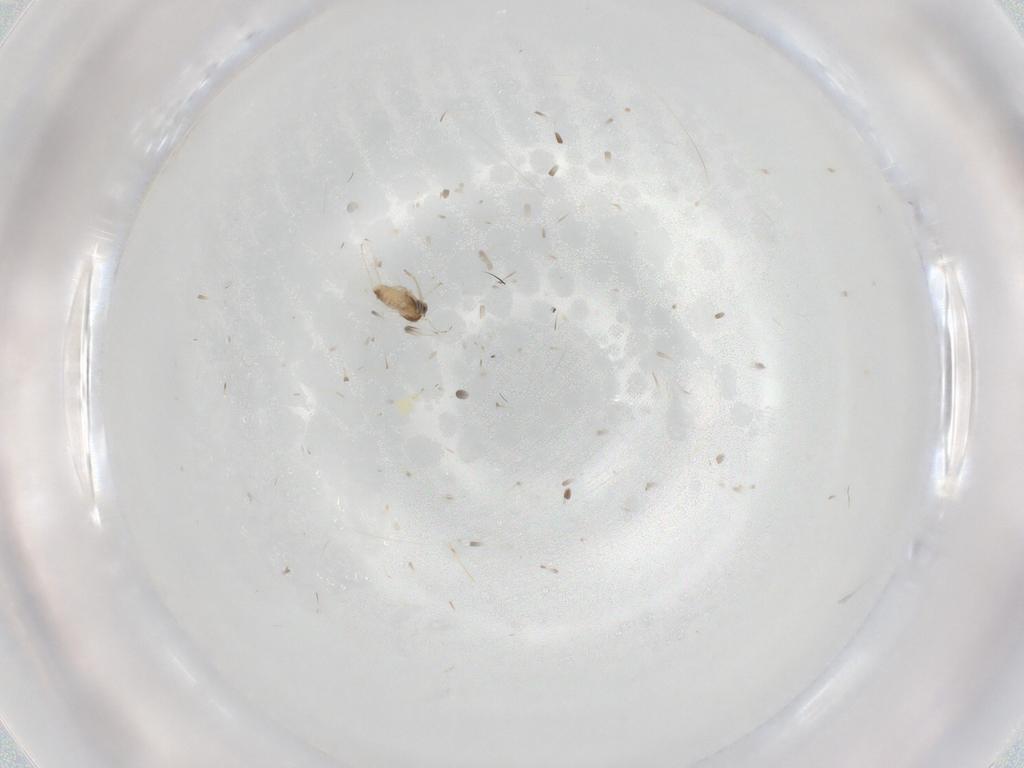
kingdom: Animalia
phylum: Arthropoda
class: Insecta
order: Diptera
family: Cecidomyiidae
